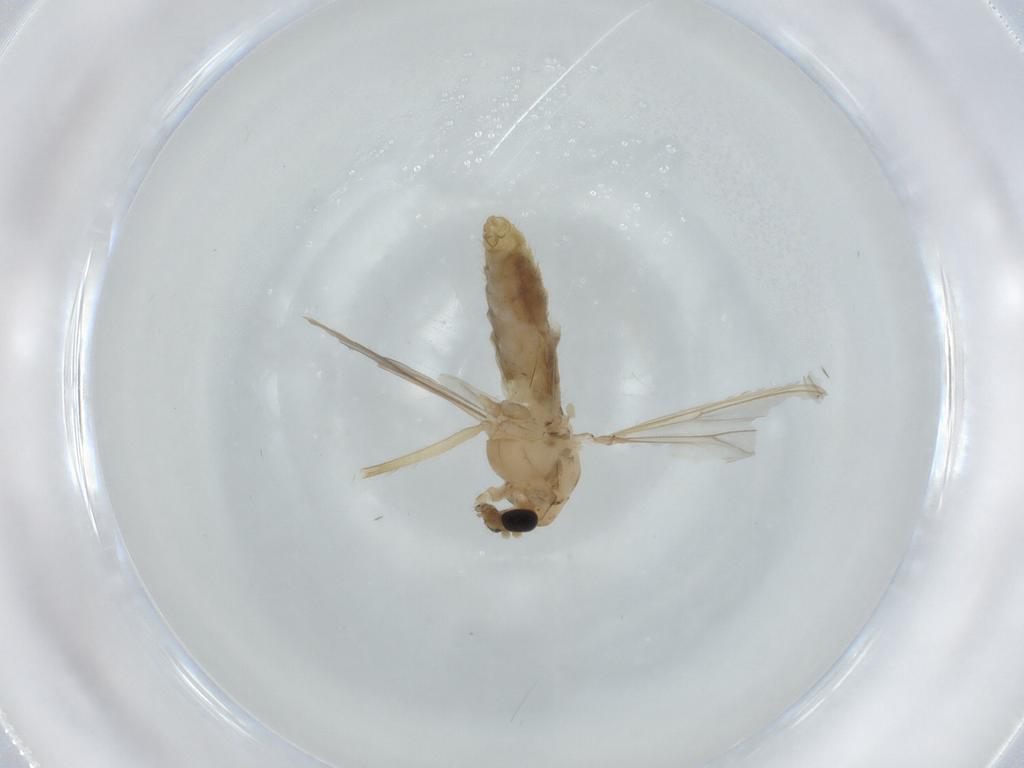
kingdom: Animalia
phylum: Arthropoda
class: Insecta
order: Diptera
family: Chironomidae
